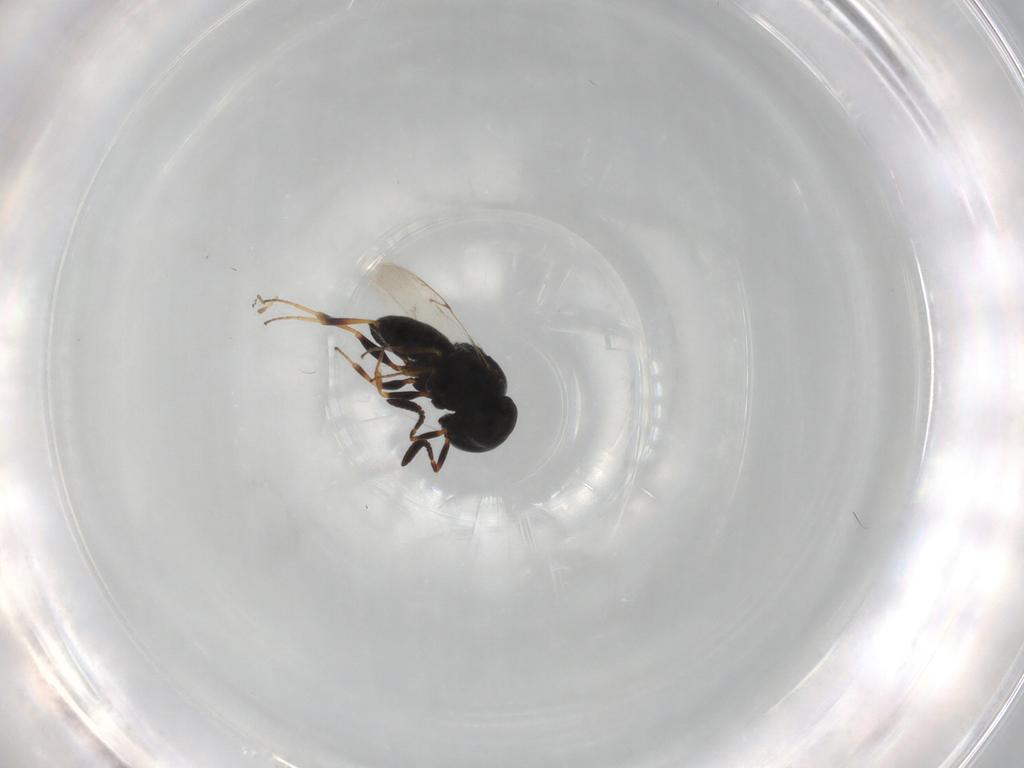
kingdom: Animalia
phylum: Arthropoda
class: Insecta
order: Hymenoptera
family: Formicidae
